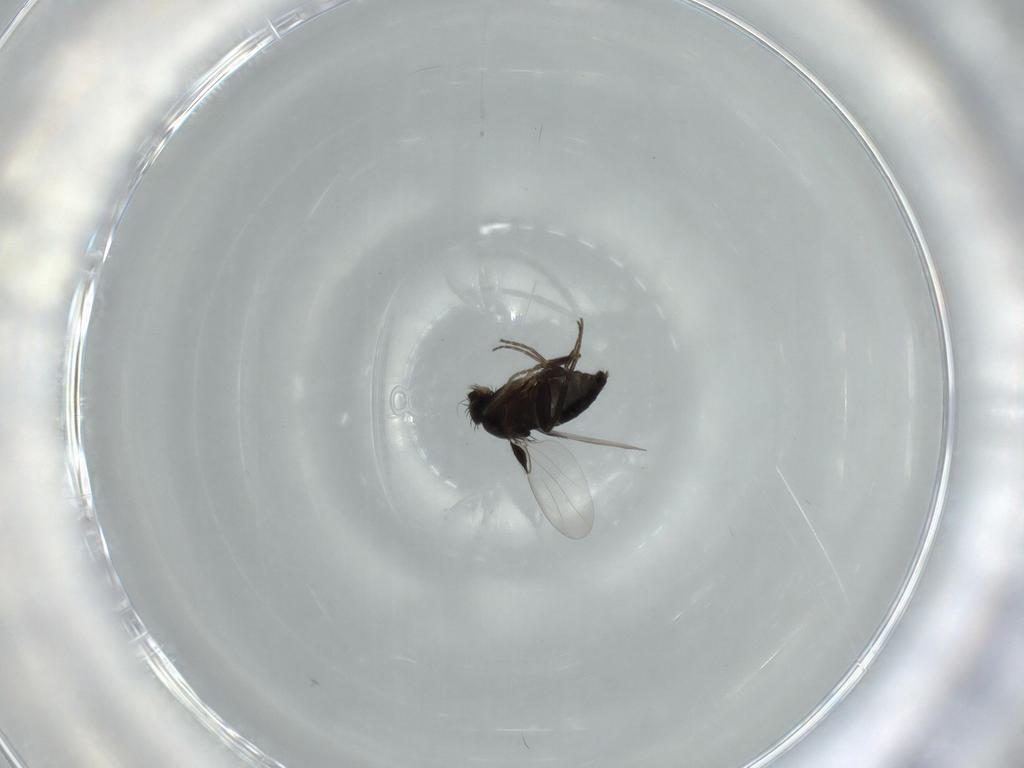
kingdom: Animalia
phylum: Arthropoda
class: Insecta
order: Diptera
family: Phoridae
